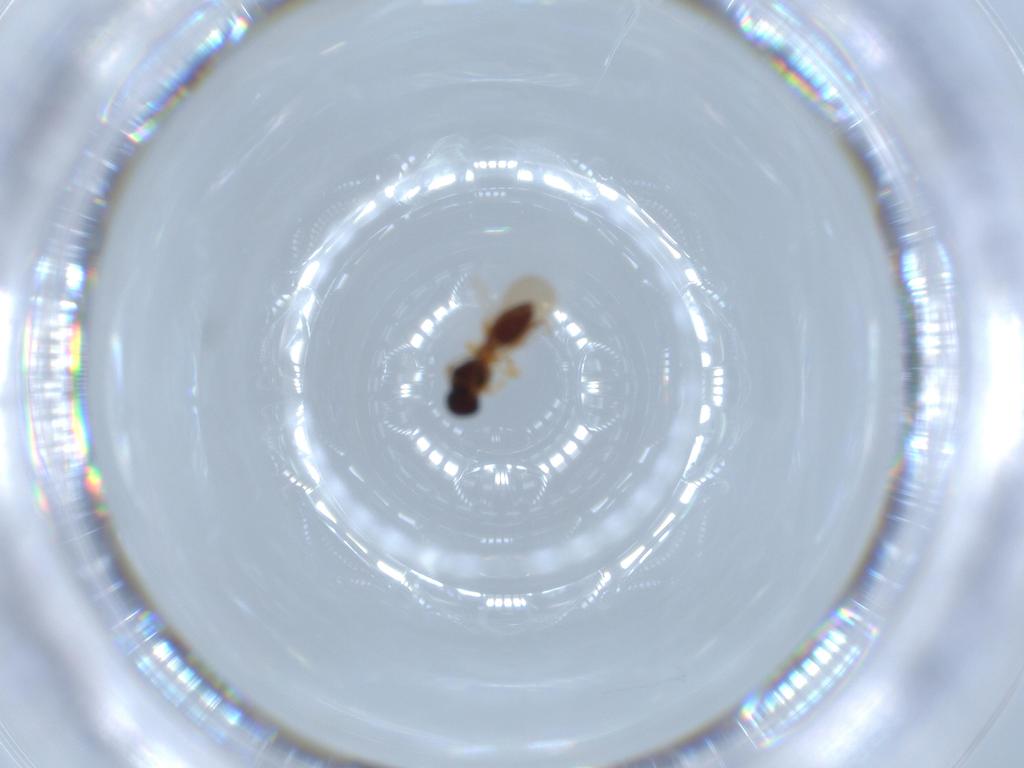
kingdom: Animalia
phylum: Arthropoda
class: Insecta
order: Hymenoptera
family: Platygastridae
